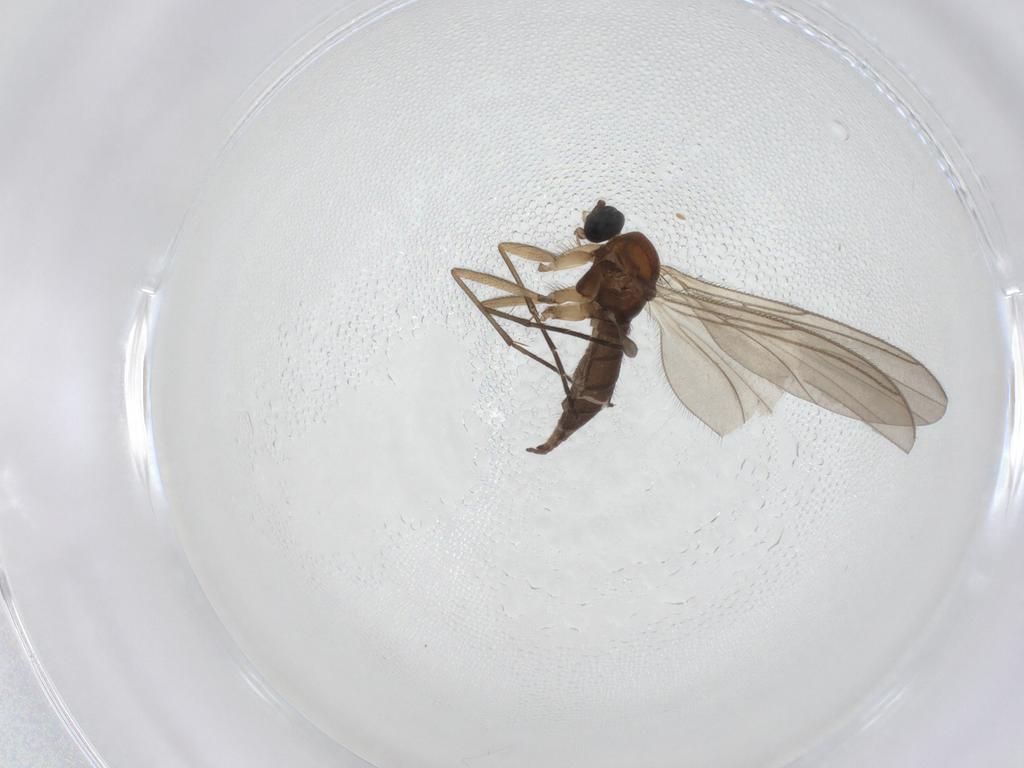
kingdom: Animalia
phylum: Arthropoda
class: Insecta
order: Diptera
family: Sciaridae
